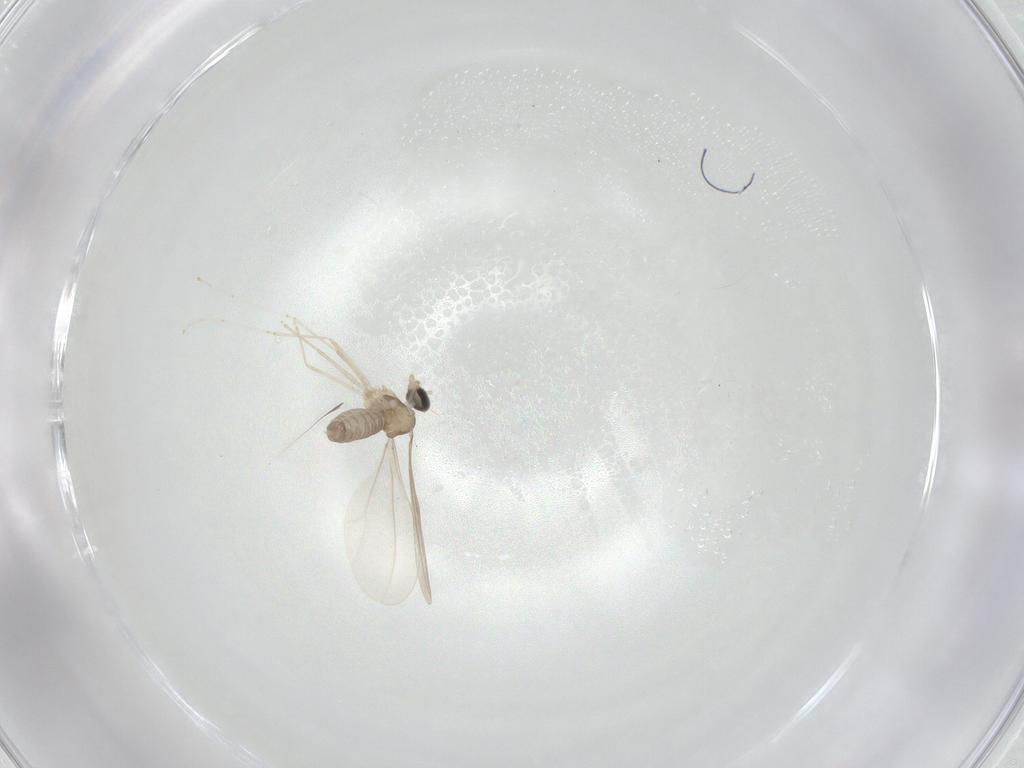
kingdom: Animalia
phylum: Arthropoda
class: Insecta
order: Diptera
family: Cecidomyiidae
